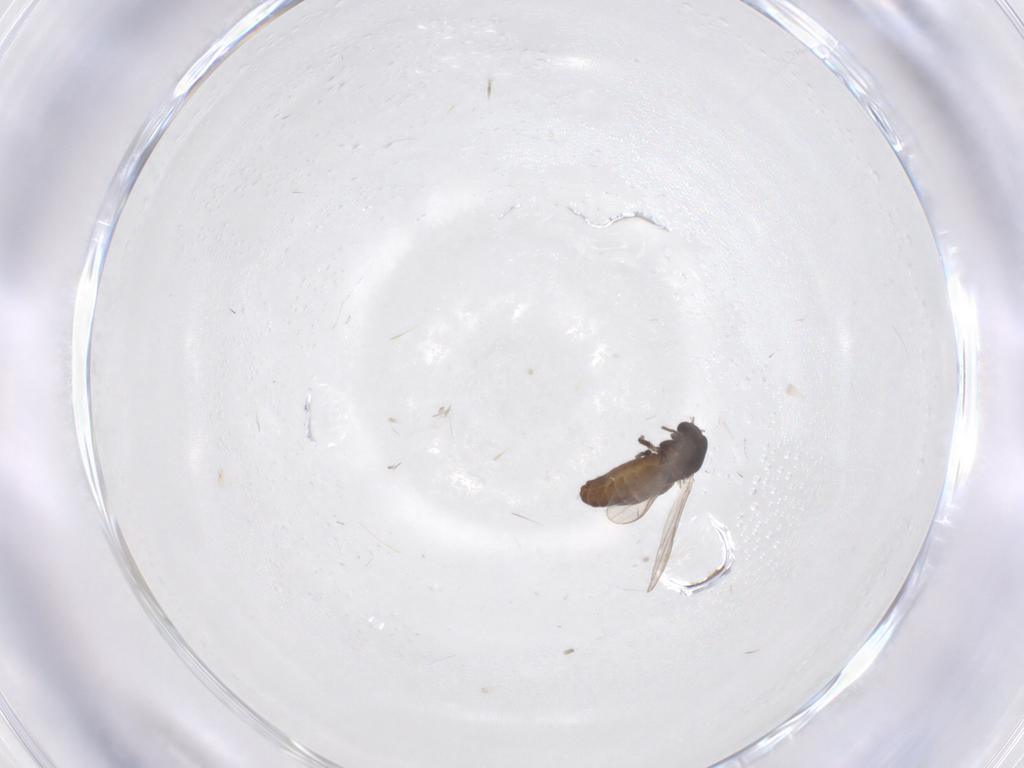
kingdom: Animalia
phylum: Arthropoda
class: Insecta
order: Diptera
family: Chironomidae
